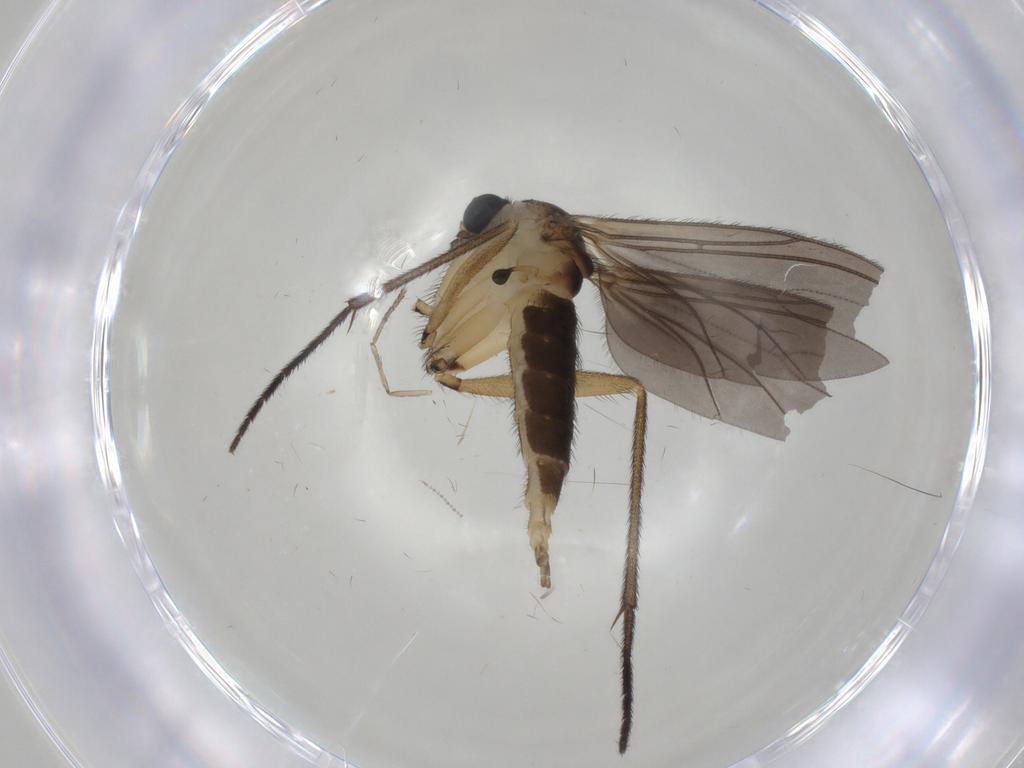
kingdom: Animalia
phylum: Arthropoda
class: Insecta
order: Diptera
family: Sciaridae
